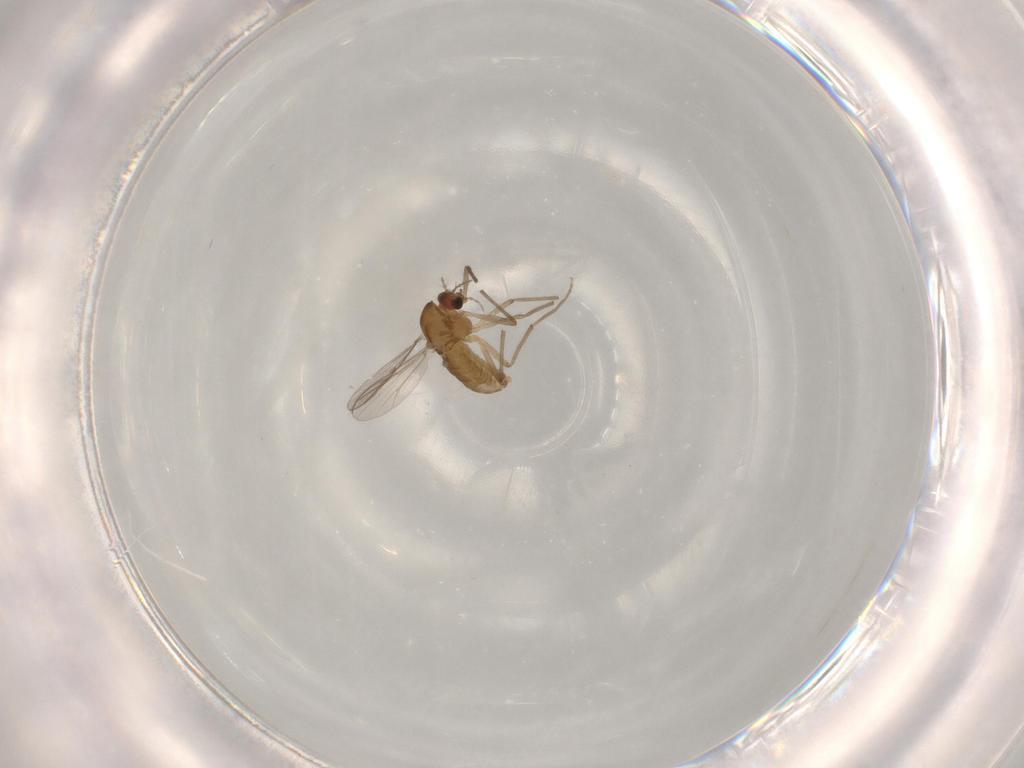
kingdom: Animalia
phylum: Arthropoda
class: Insecta
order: Diptera
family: Chironomidae
